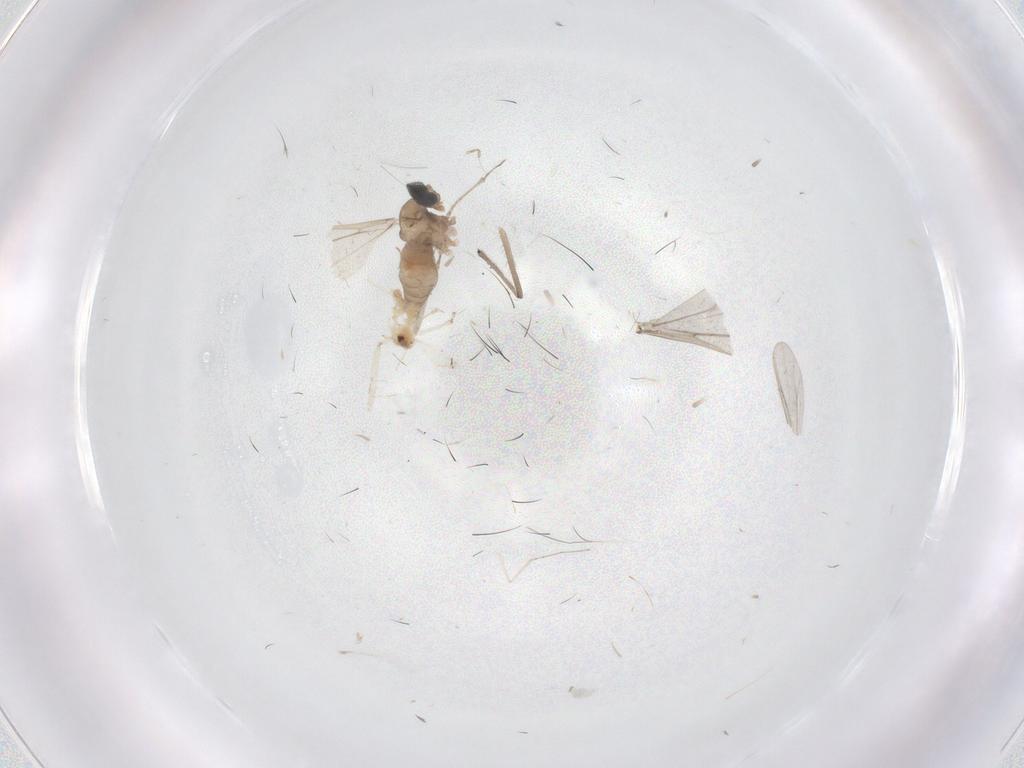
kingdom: Animalia
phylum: Arthropoda
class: Insecta
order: Diptera
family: Cecidomyiidae
